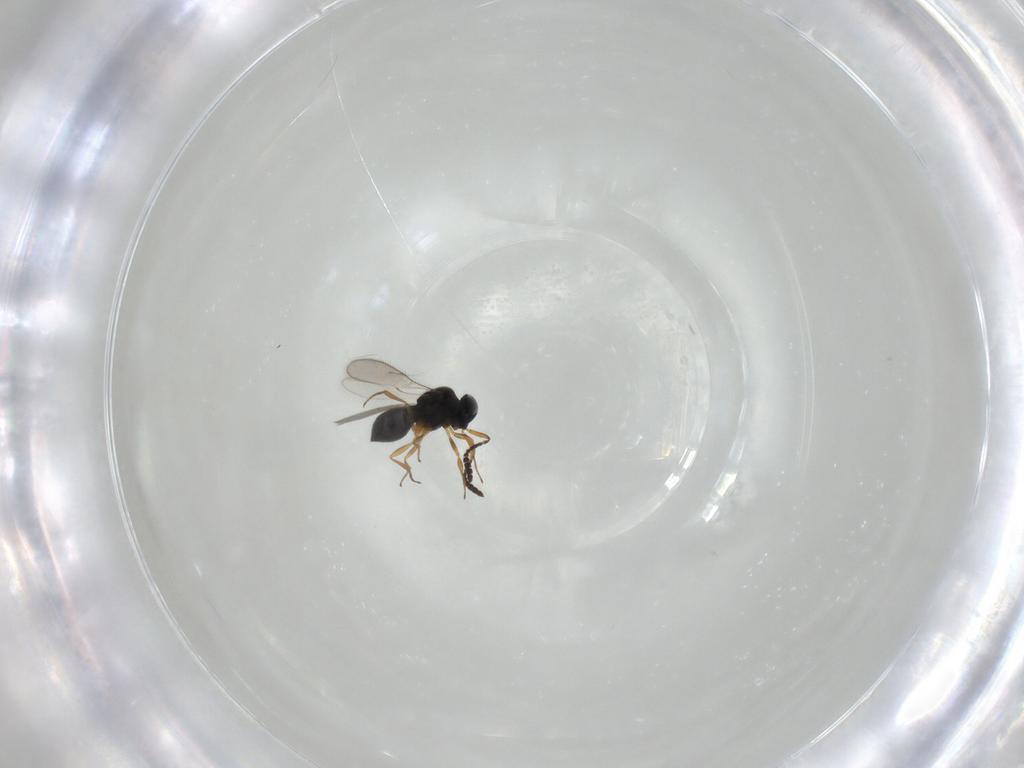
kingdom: Animalia
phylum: Arthropoda
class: Insecta
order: Hymenoptera
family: Scelionidae
